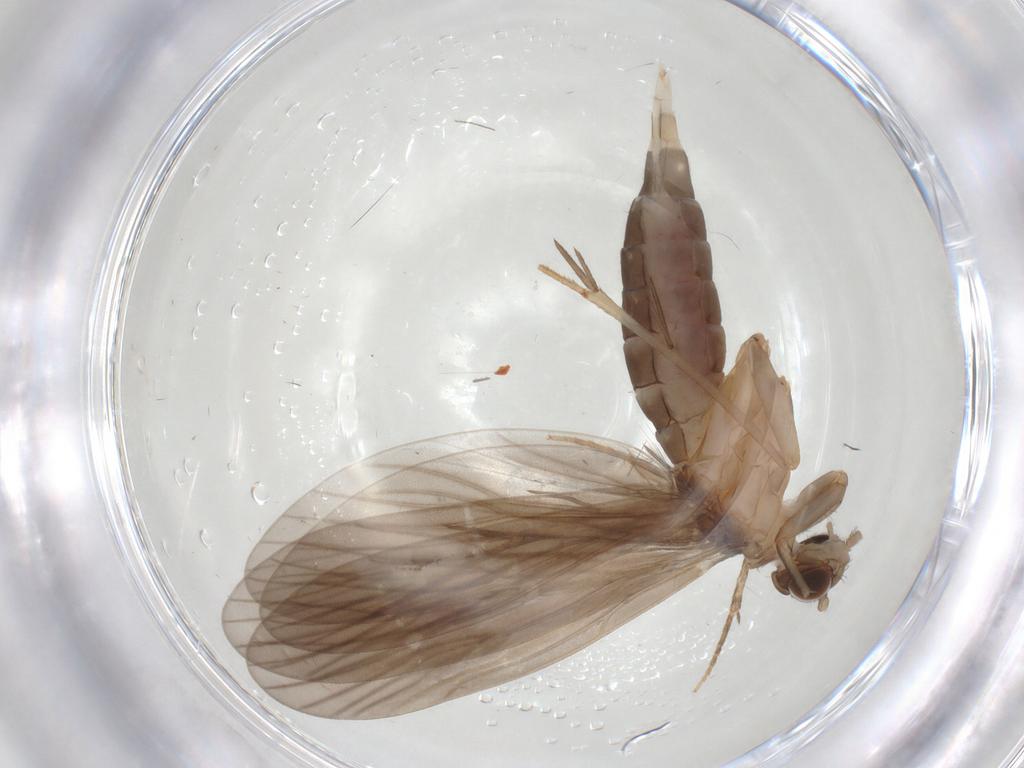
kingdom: Animalia
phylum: Arthropoda
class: Insecta
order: Trichoptera
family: Philopotamidae
